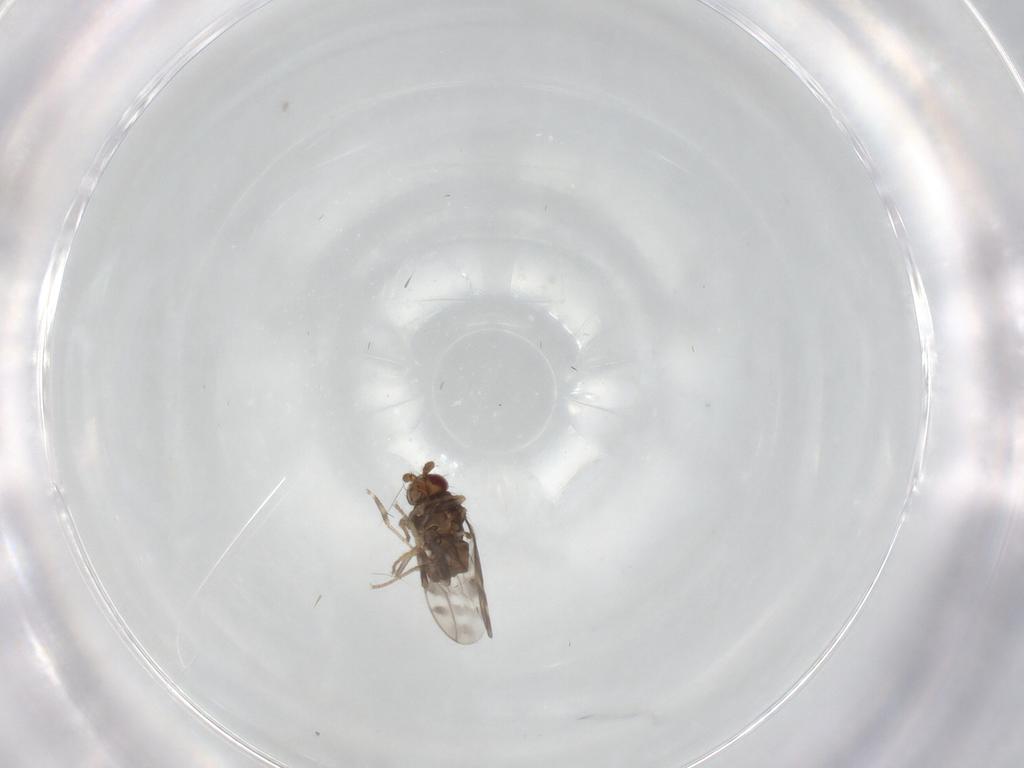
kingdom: Animalia
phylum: Arthropoda
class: Insecta
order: Diptera
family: Sphaeroceridae
